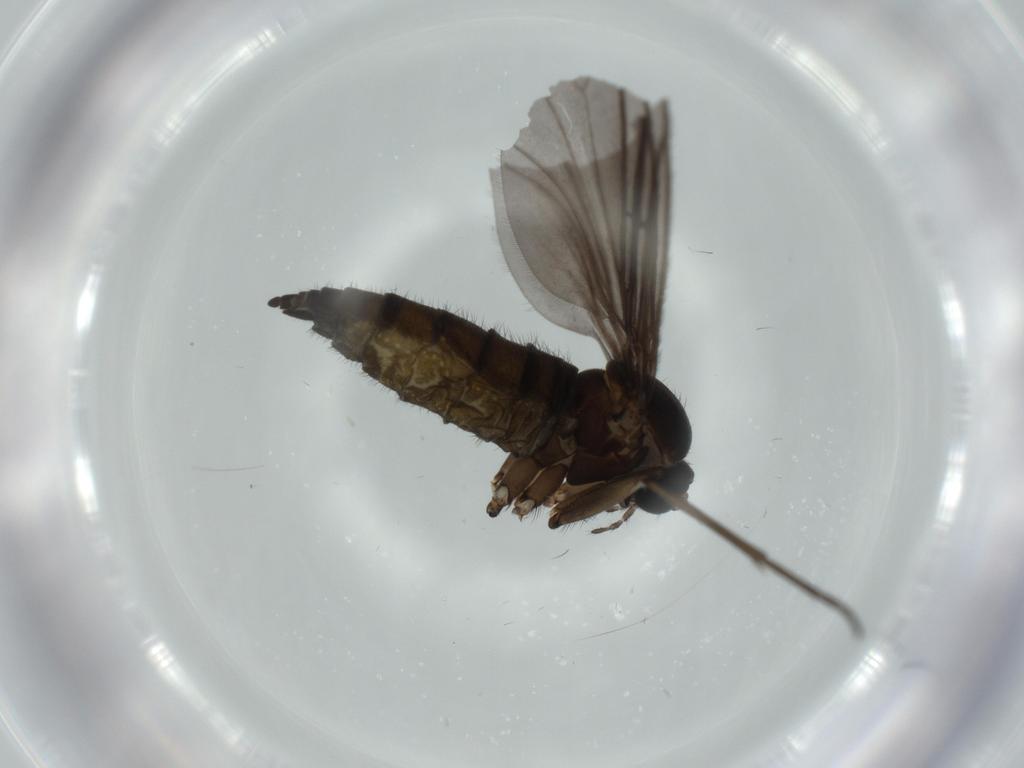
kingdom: Animalia
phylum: Arthropoda
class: Insecta
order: Diptera
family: Sciaridae
